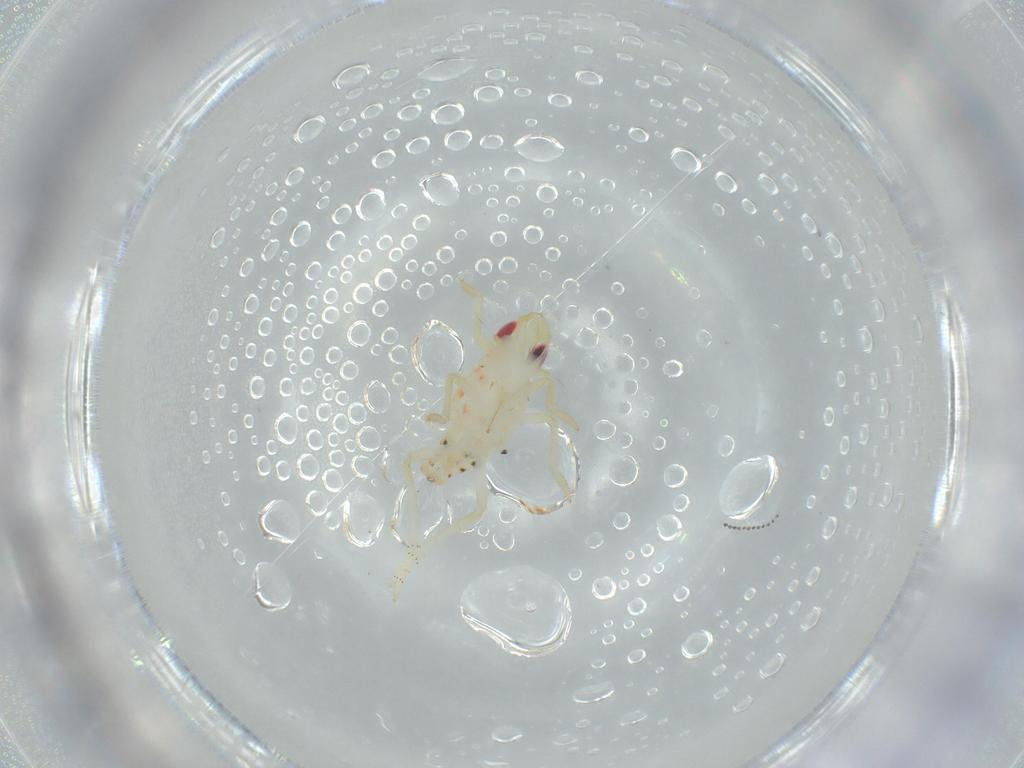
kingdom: Animalia
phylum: Arthropoda
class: Insecta
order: Hemiptera
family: Tropiduchidae
